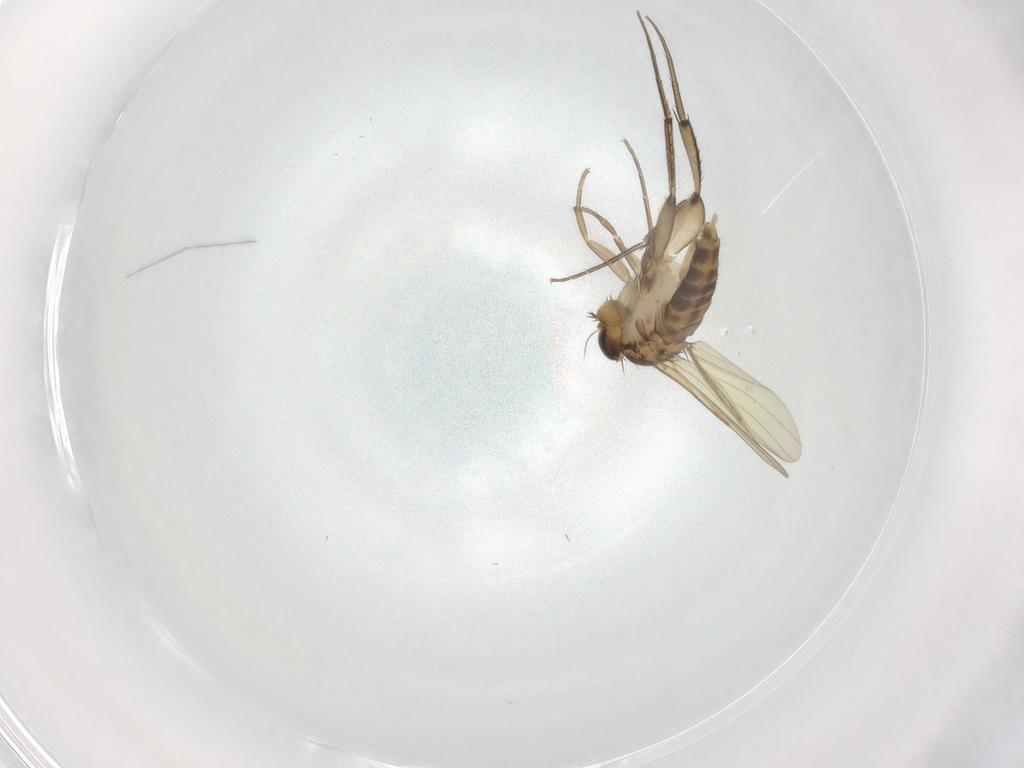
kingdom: Animalia
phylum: Arthropoda
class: Insecta
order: Diptera
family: Phoridae
